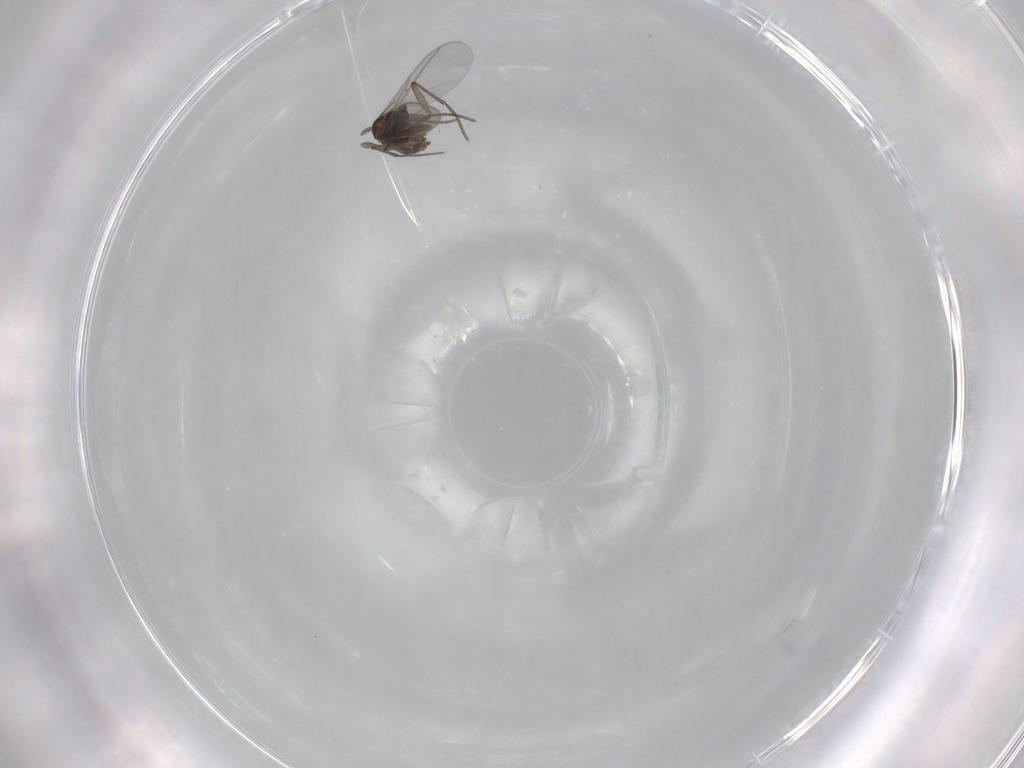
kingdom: Animalia
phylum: Arthropoda
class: Insecta
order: Diptera
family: Sciaridae
